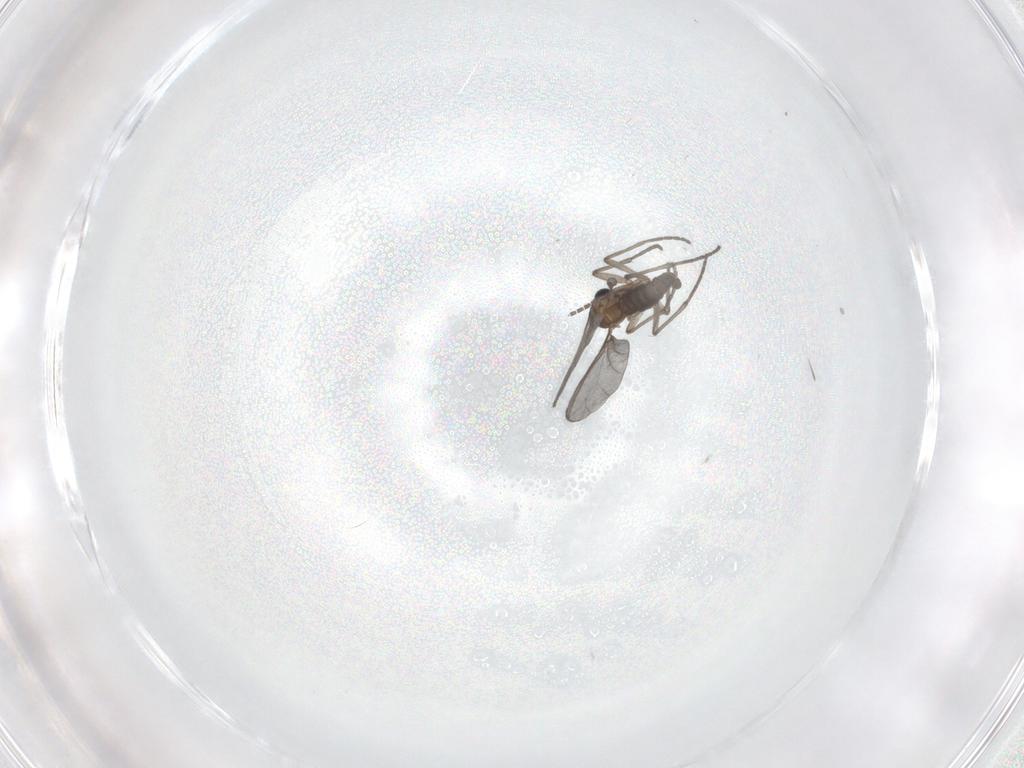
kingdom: Animalia
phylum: Arthropoda
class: Insecta
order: Diptera
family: Sciaridae
